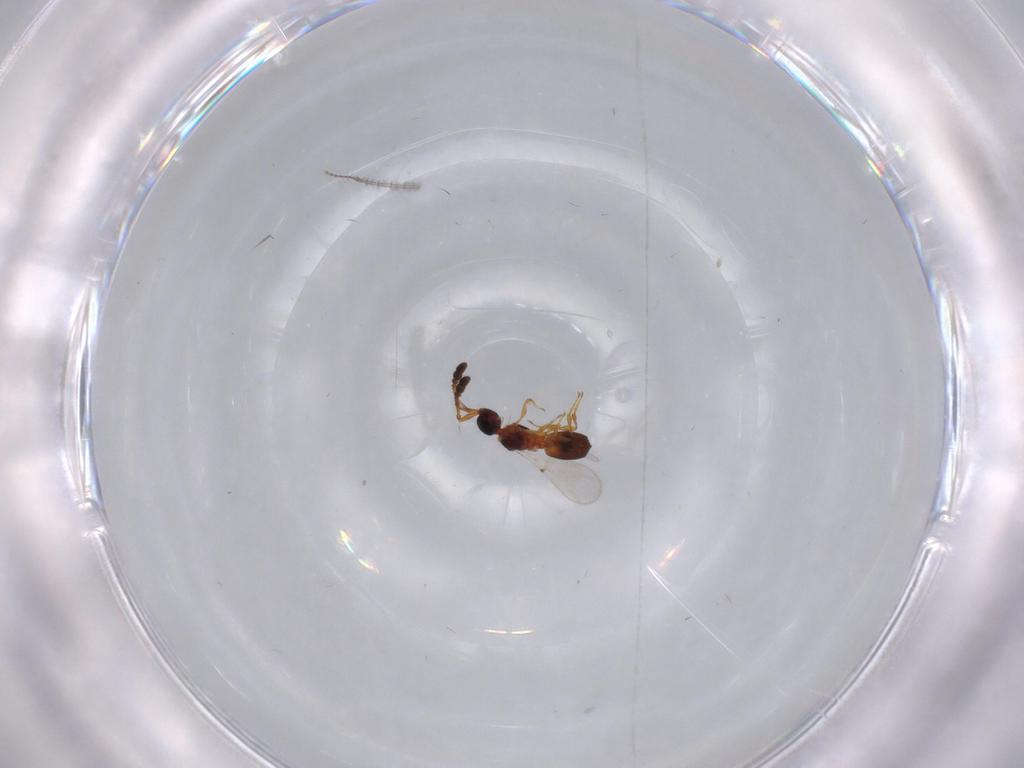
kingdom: Animalia
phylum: Arthropoda
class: Insecta
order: Hymenoptera
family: Diapriidae
